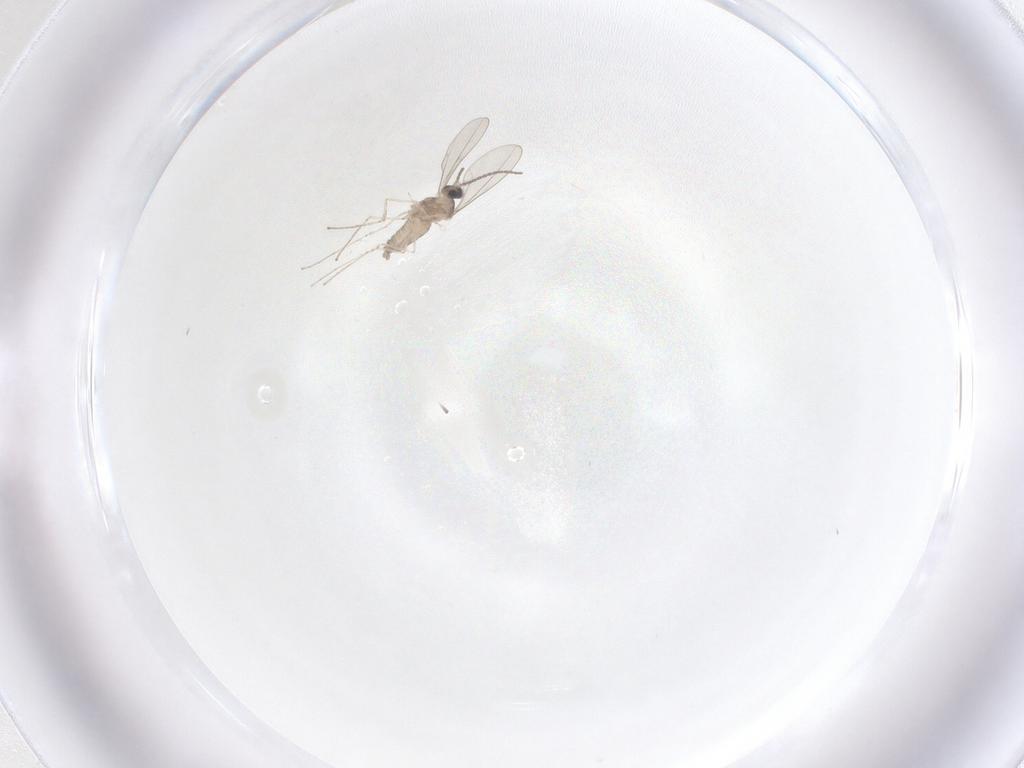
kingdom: Animalia
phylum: Arthropoda
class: Insecta
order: Diptera
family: Cecidomyiidae
